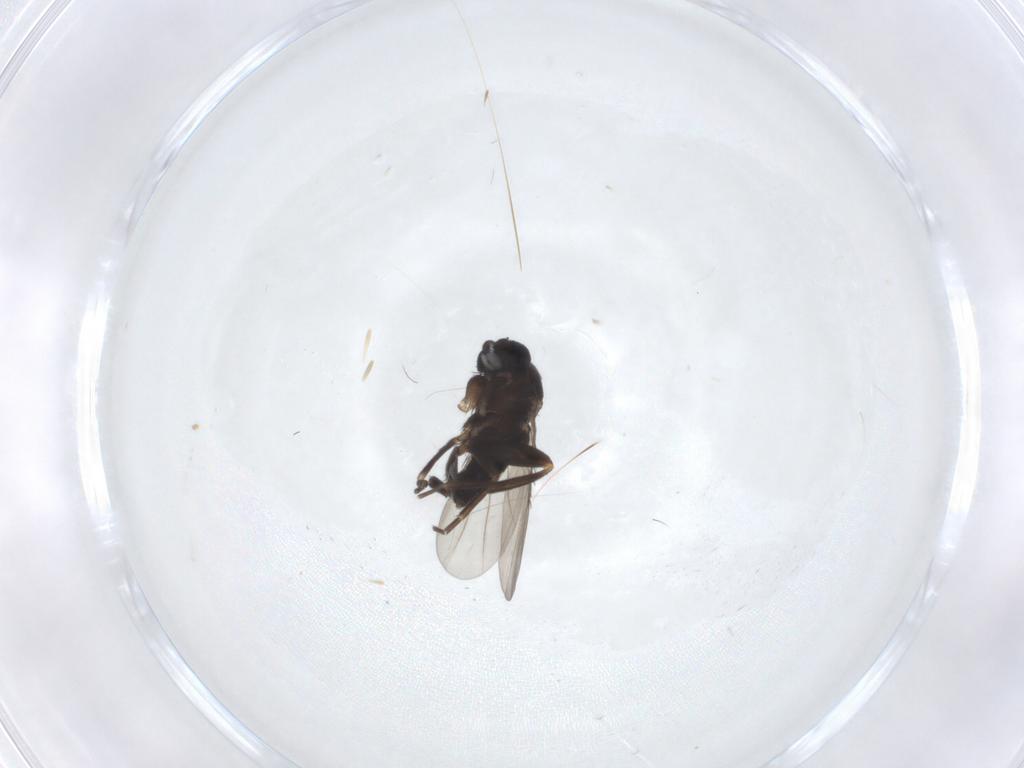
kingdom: Animalia
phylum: Arthropoda
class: Insecta
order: Diptera
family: Phoridae
